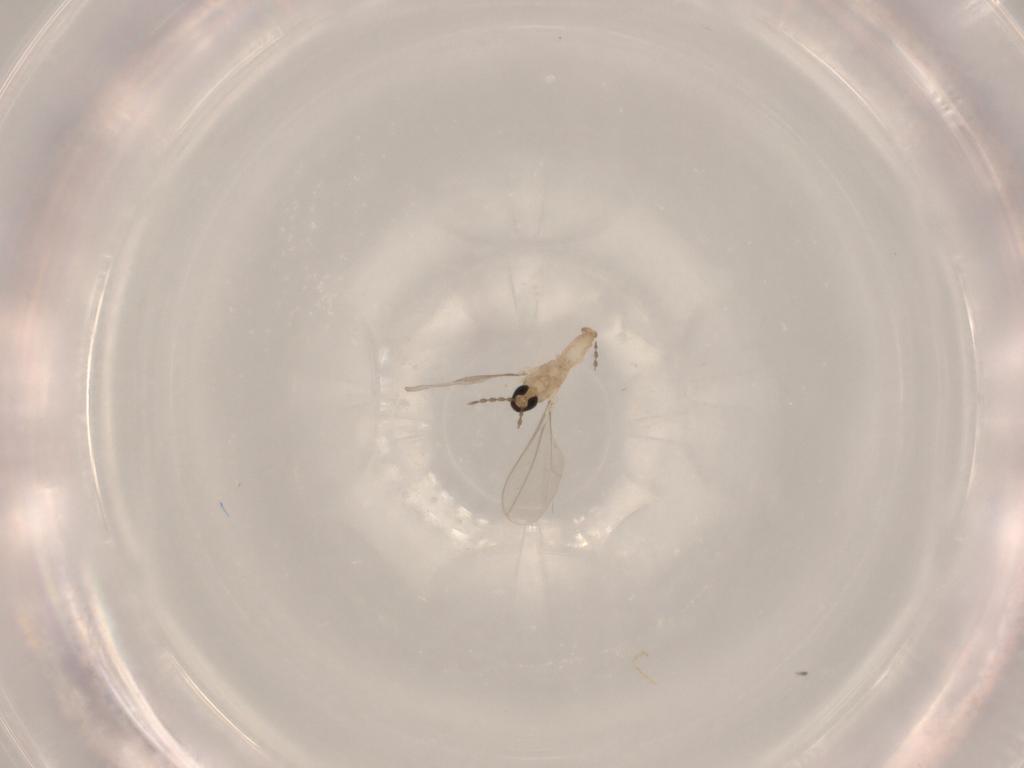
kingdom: Animalia
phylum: Arthropoda
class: Insecta
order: Diptera
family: Cecidomyiidae
